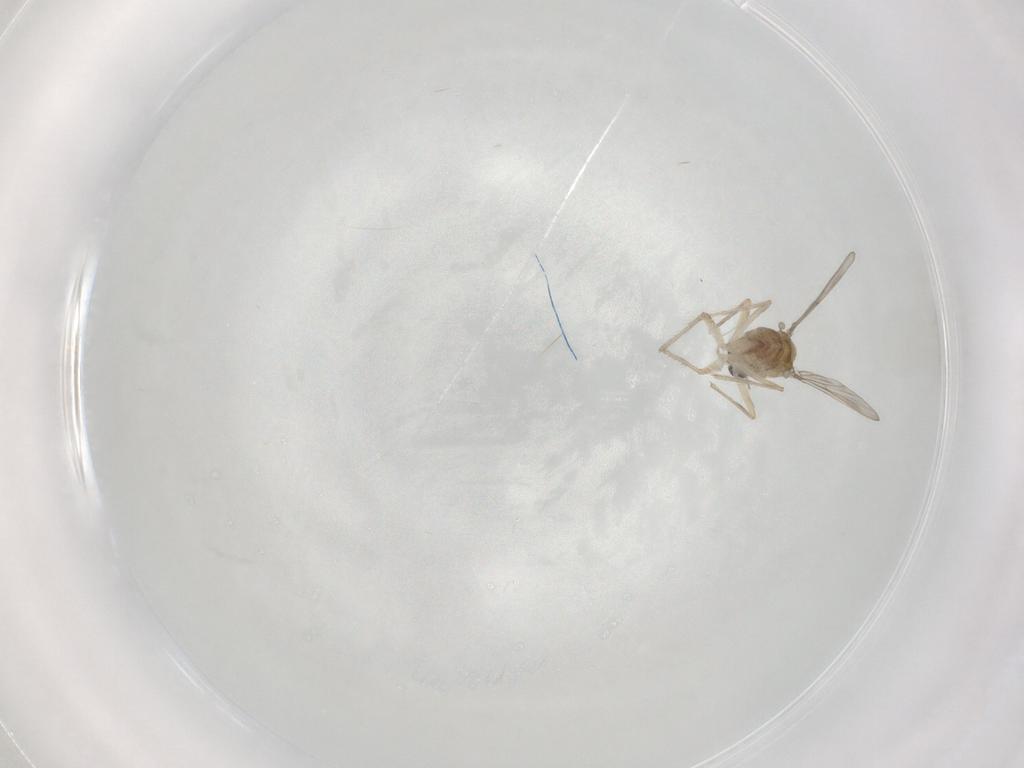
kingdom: Animalia
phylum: Arthropoda
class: Insecta
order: Diptera
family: Chironomidae
